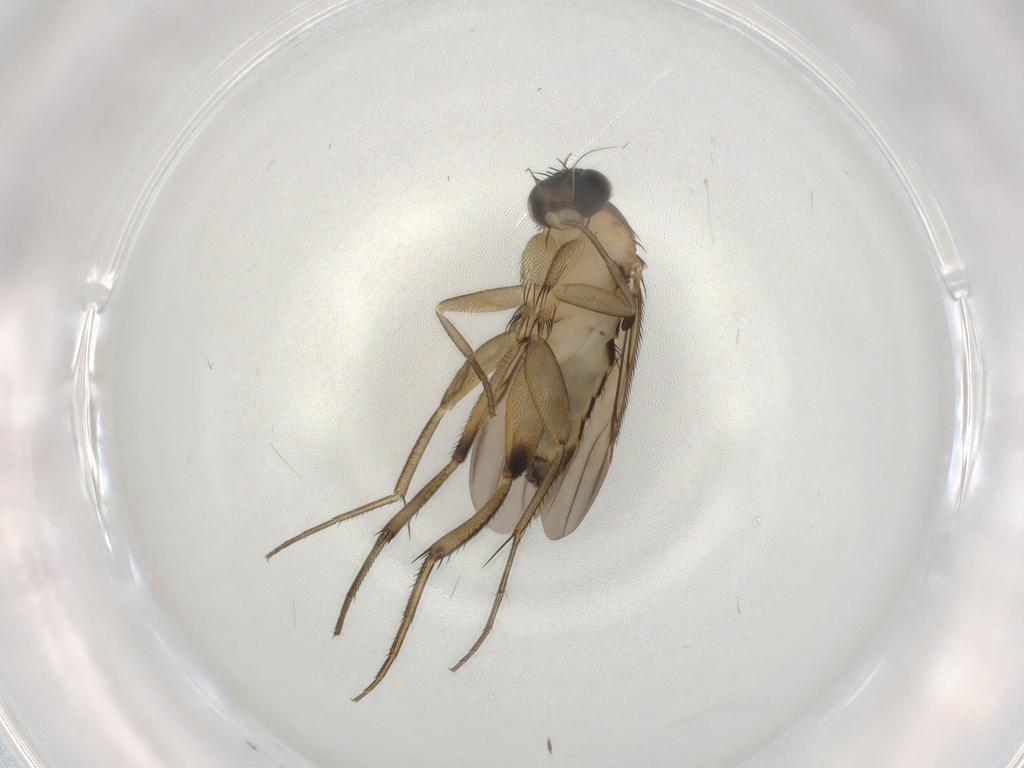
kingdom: Animalia
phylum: Arthropoda
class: Insecta
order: Diptera
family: Phoridae
